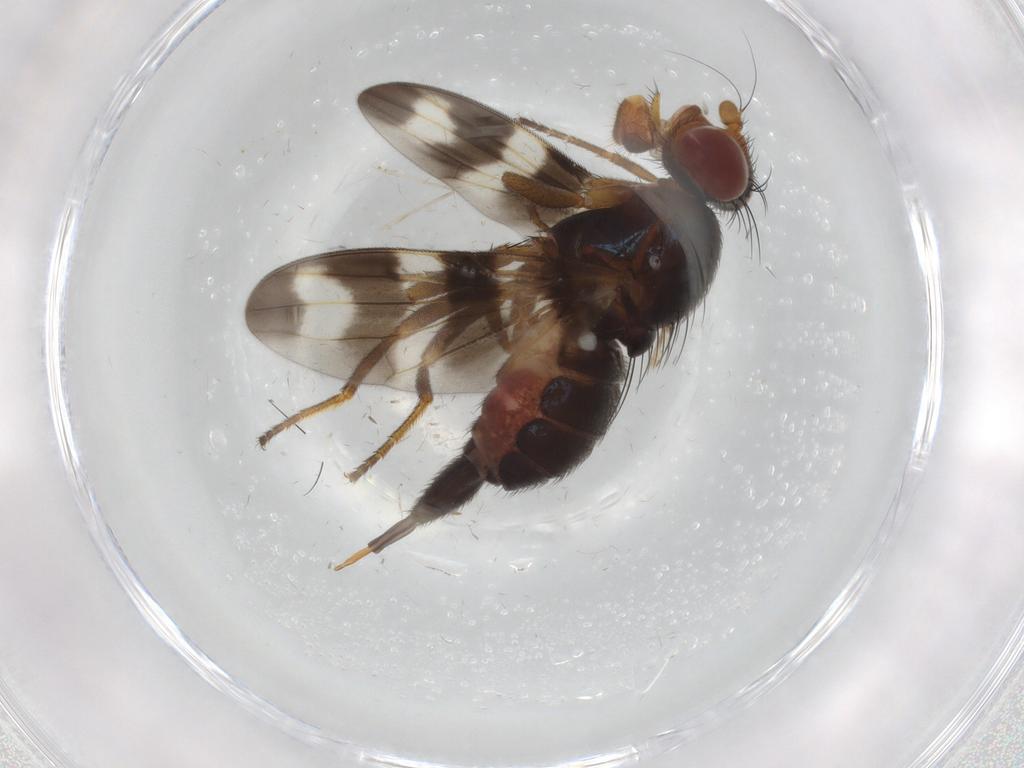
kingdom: Animalia
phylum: Arthropoda
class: Insecta
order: Diptera
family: Ulidiidae
